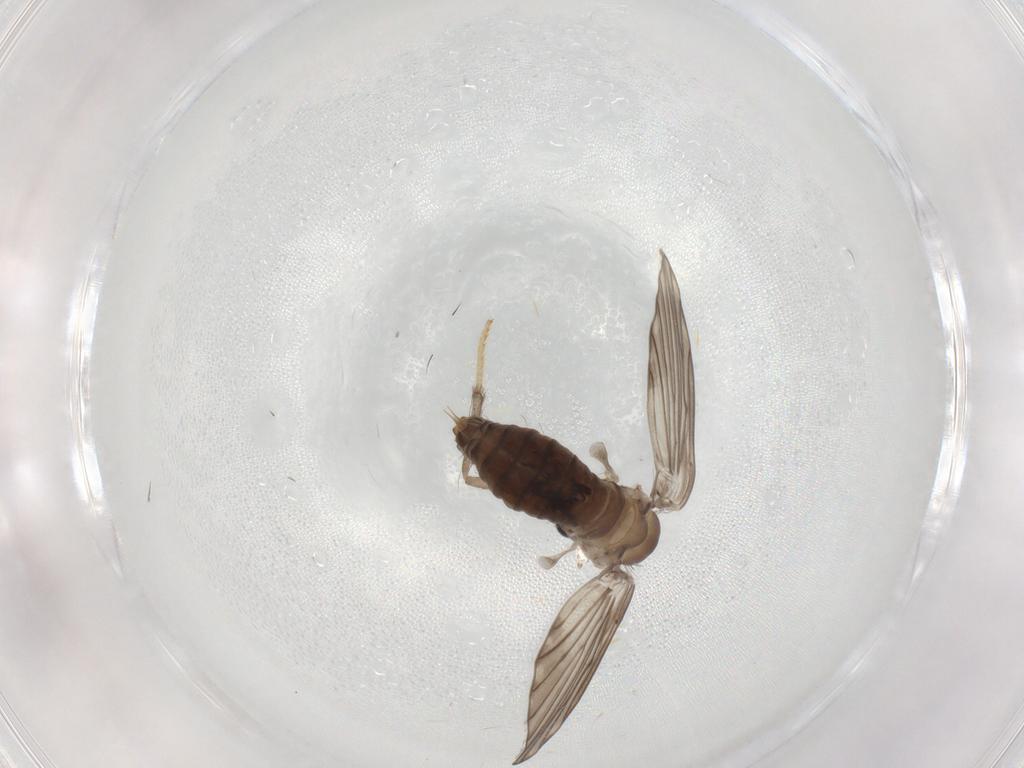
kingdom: Animalia
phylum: Arthropoda
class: Insecta
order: Diptera
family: Psychodidae
